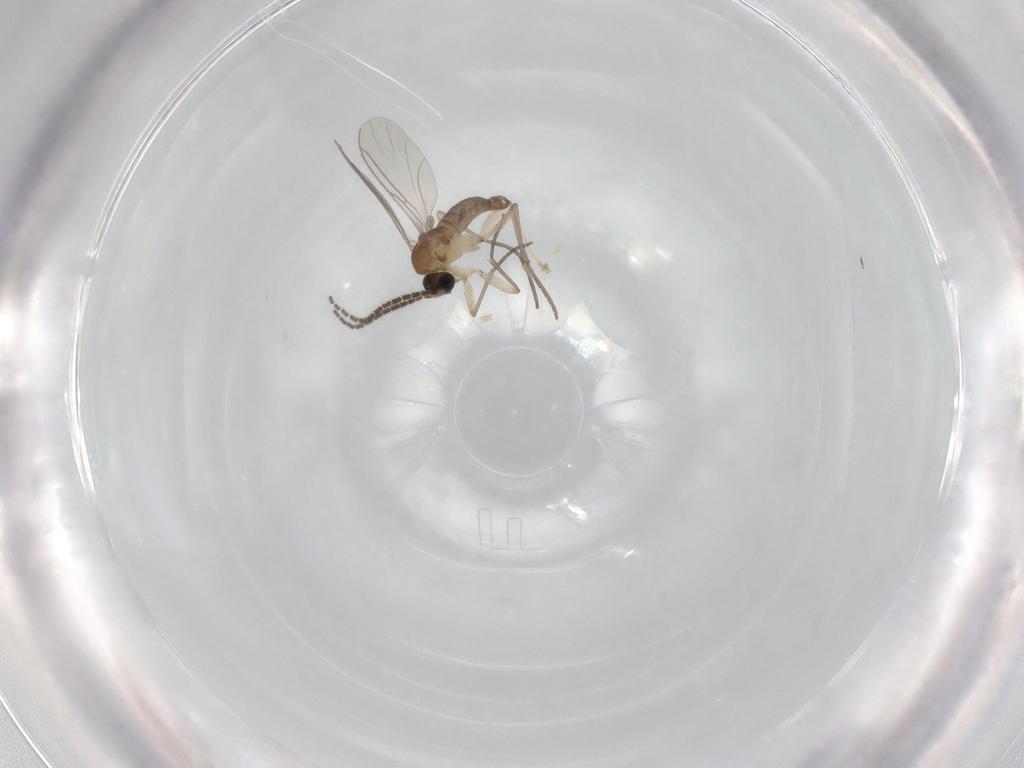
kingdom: Animalia
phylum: Arthropoda
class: Insecta
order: Diptera
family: Sciaridae
